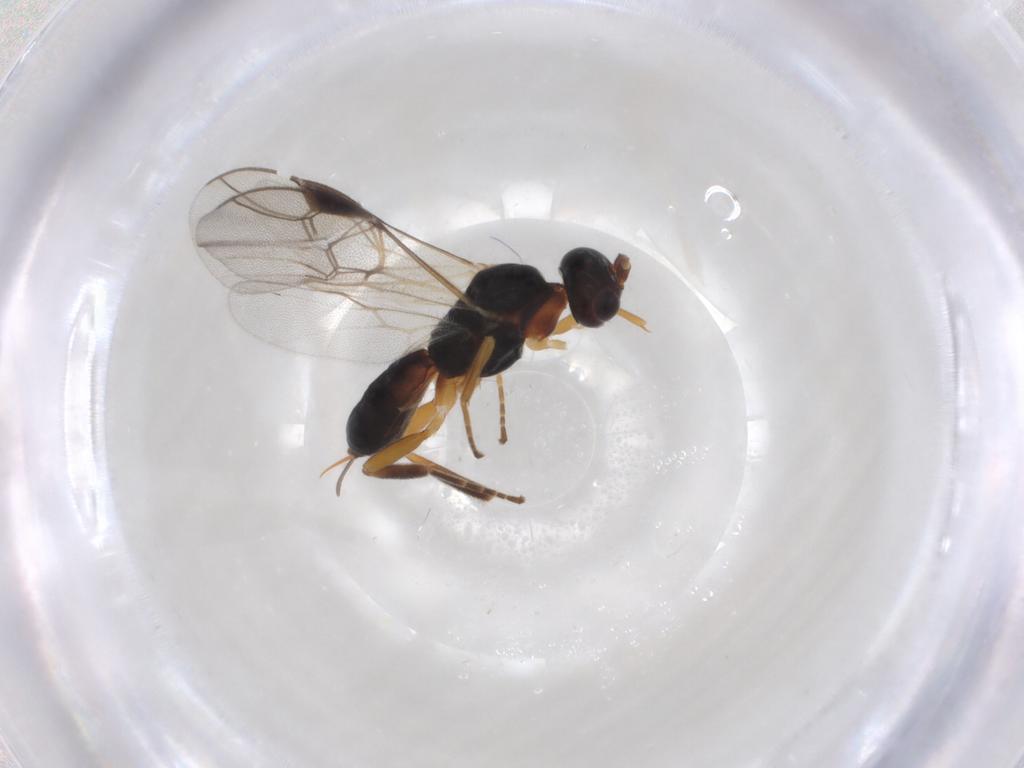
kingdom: Animalia
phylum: Arthropoda
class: Insecta
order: Hymenoptera
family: Braconidae
